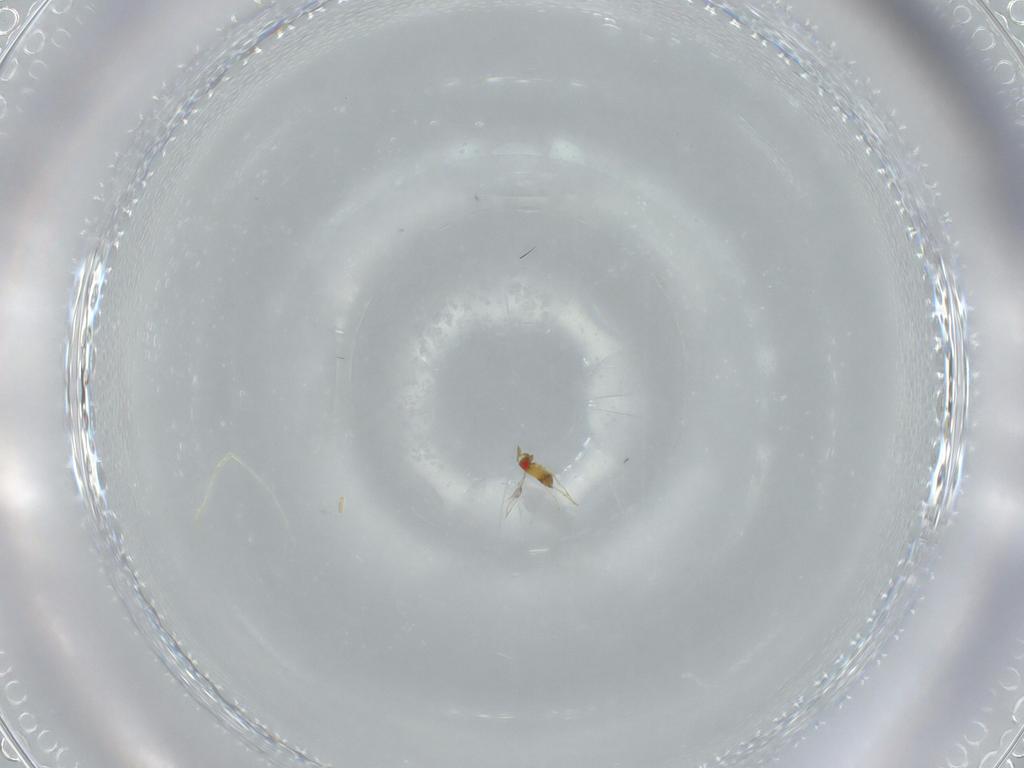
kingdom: Animalia
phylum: Arthropoda
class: Insecta
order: Hymenoptera
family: Trichogrammatidae
